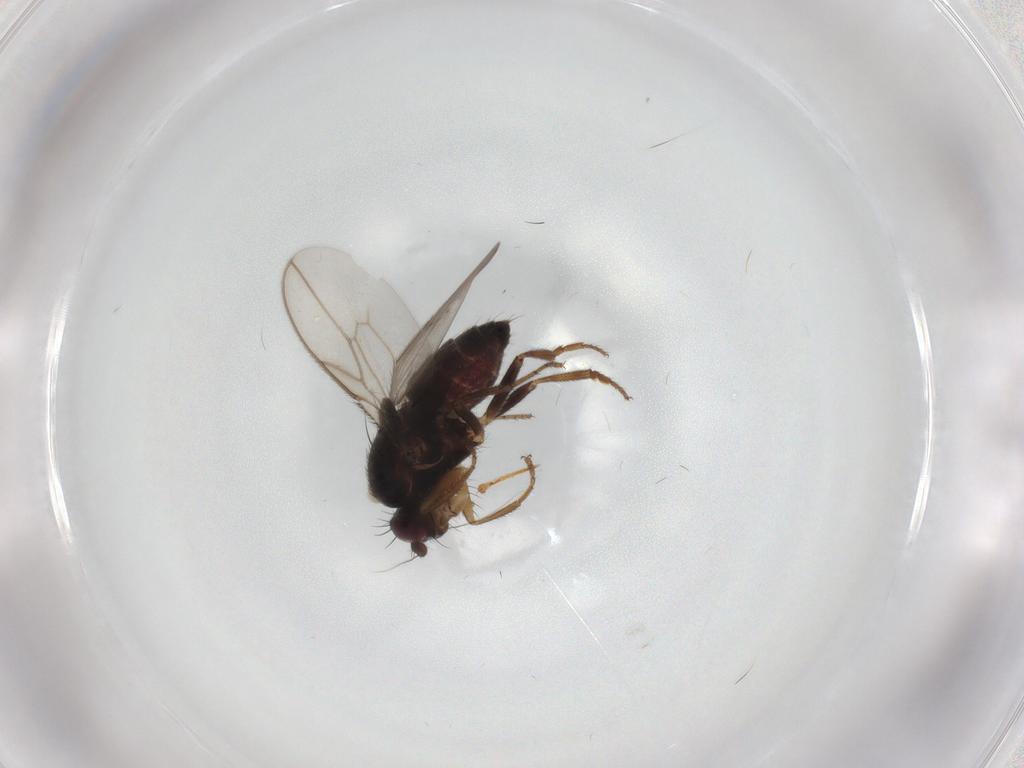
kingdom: Animalia
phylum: Arthropoda
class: Insecta
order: Diptera
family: Sphaeroceridae
